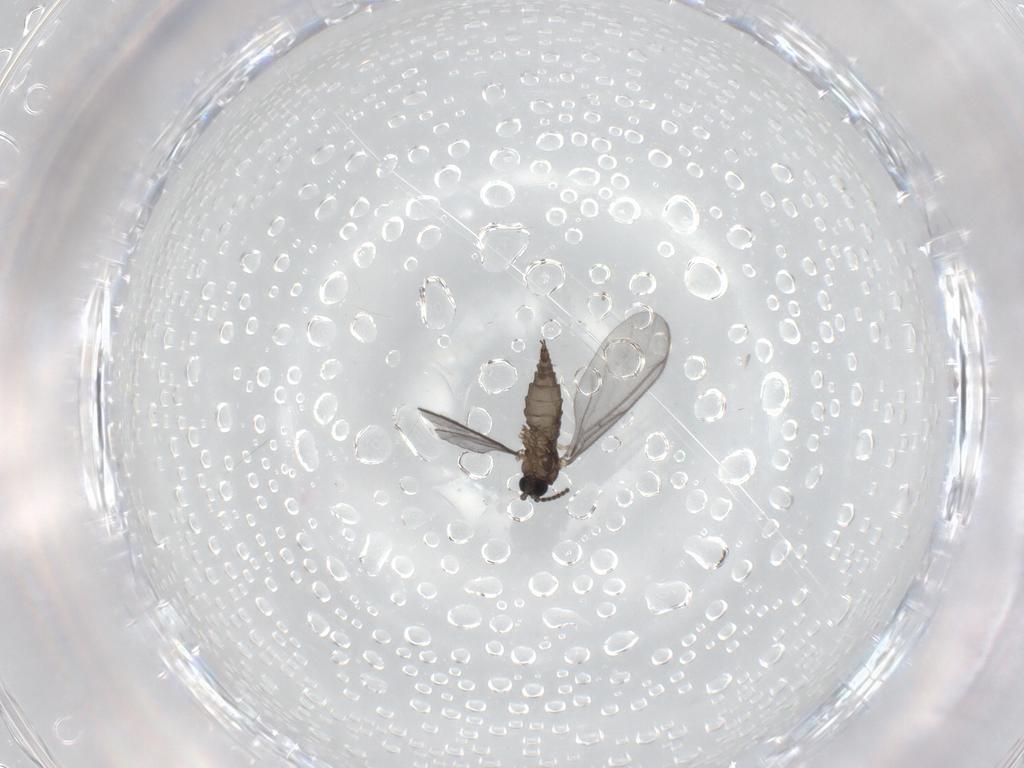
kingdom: Animalia
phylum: Arthropoda
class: Insecta
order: Diptera
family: Sciaridae
